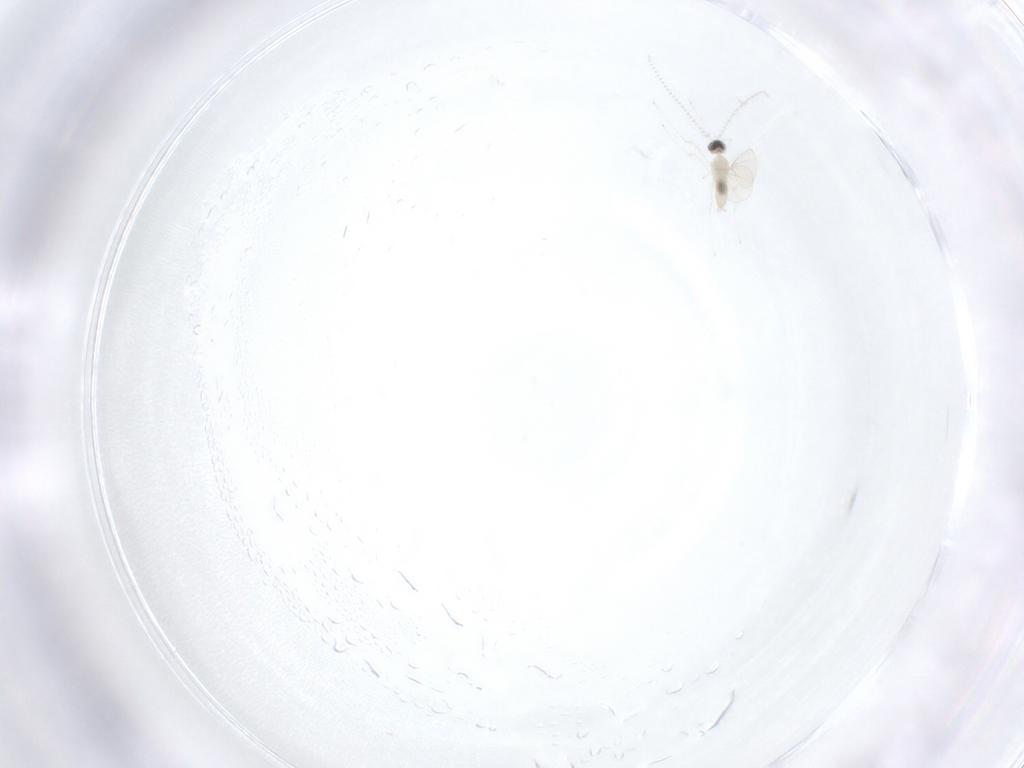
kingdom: Animalia
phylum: Arthropoda
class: Insecta
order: Diptera
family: Cecidomyiidae
